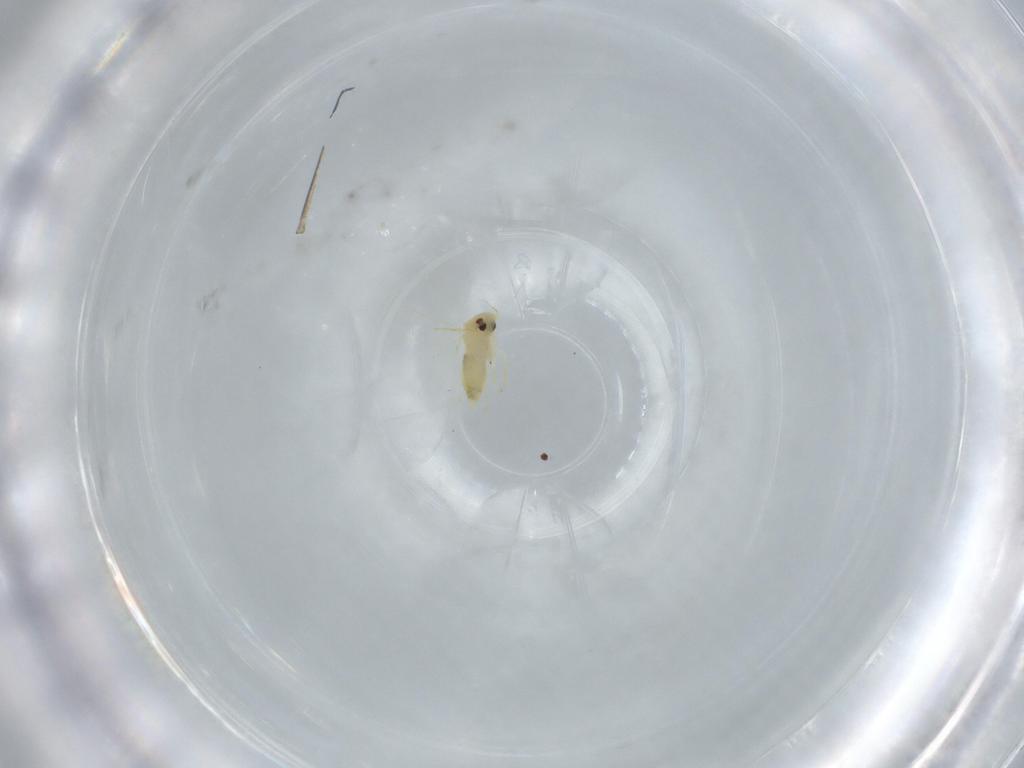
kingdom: Animalia
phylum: Arthropoda
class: Insecta
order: Hemiptera
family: Aleyrodidae
